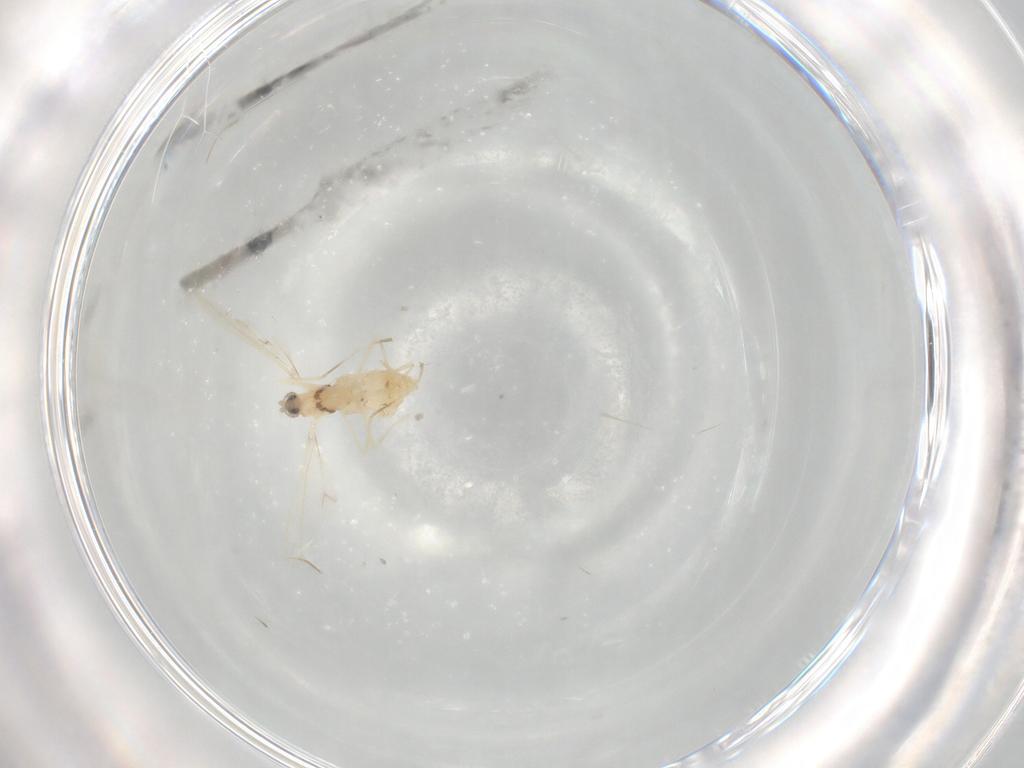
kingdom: Animalia
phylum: Arthropoda
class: Insecta
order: Diptera
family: Cecidomyiidae
